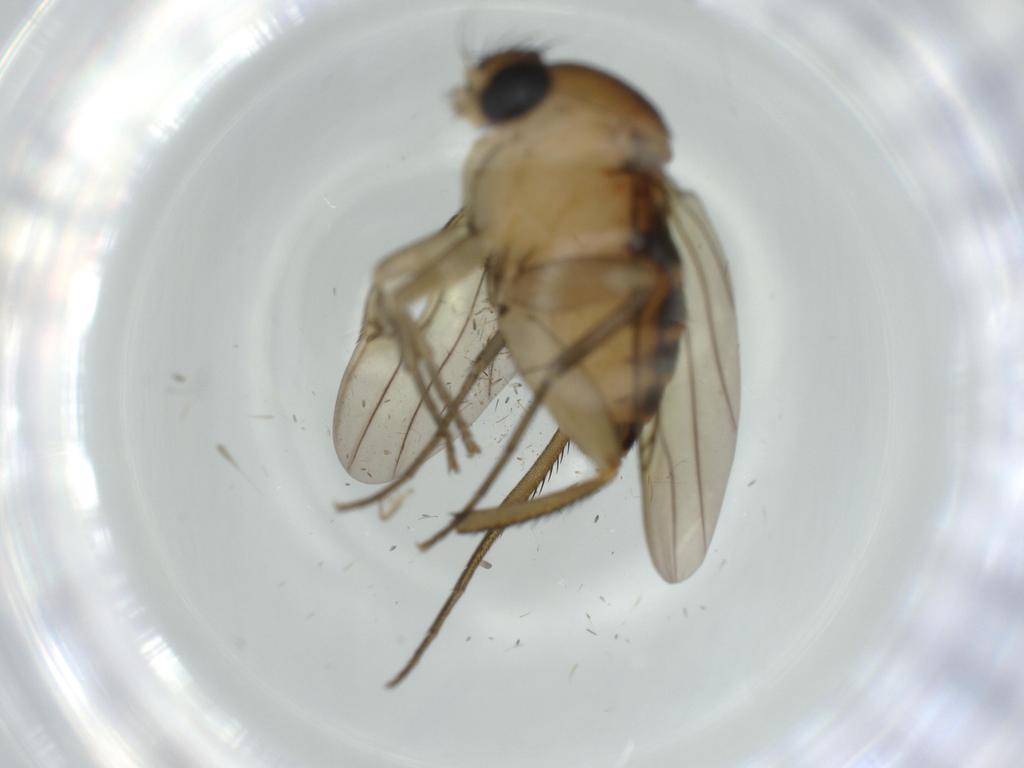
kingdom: Animalia
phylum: Arthropoda
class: Insecta
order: Diptera
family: Phoridae
